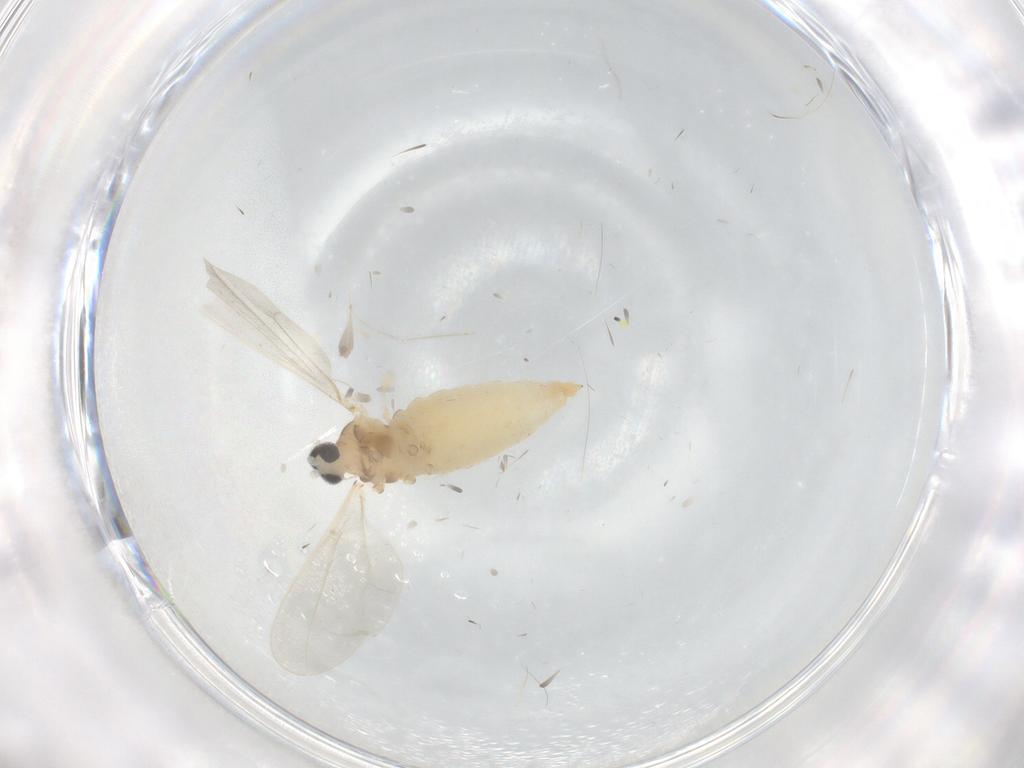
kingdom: Animalia
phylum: Arthropoda
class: Insecta
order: Diptera
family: Cecidomyiidae
